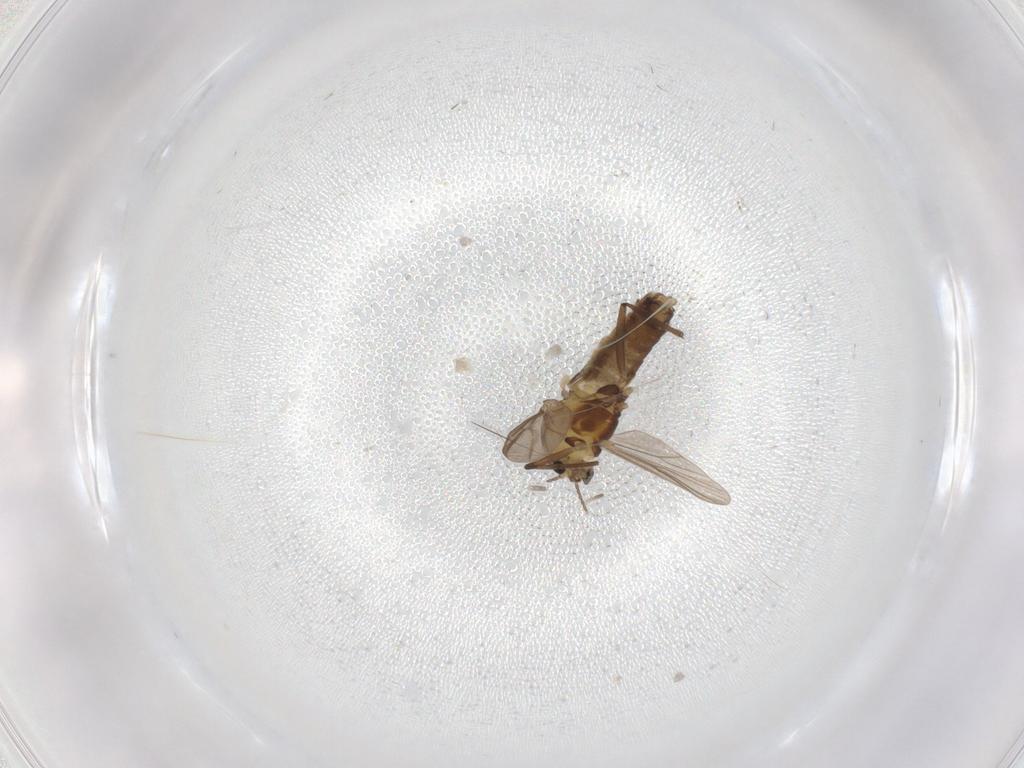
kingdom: Animalia
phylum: Arthropoda
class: Insecta
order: Diptera
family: Chironomidae
